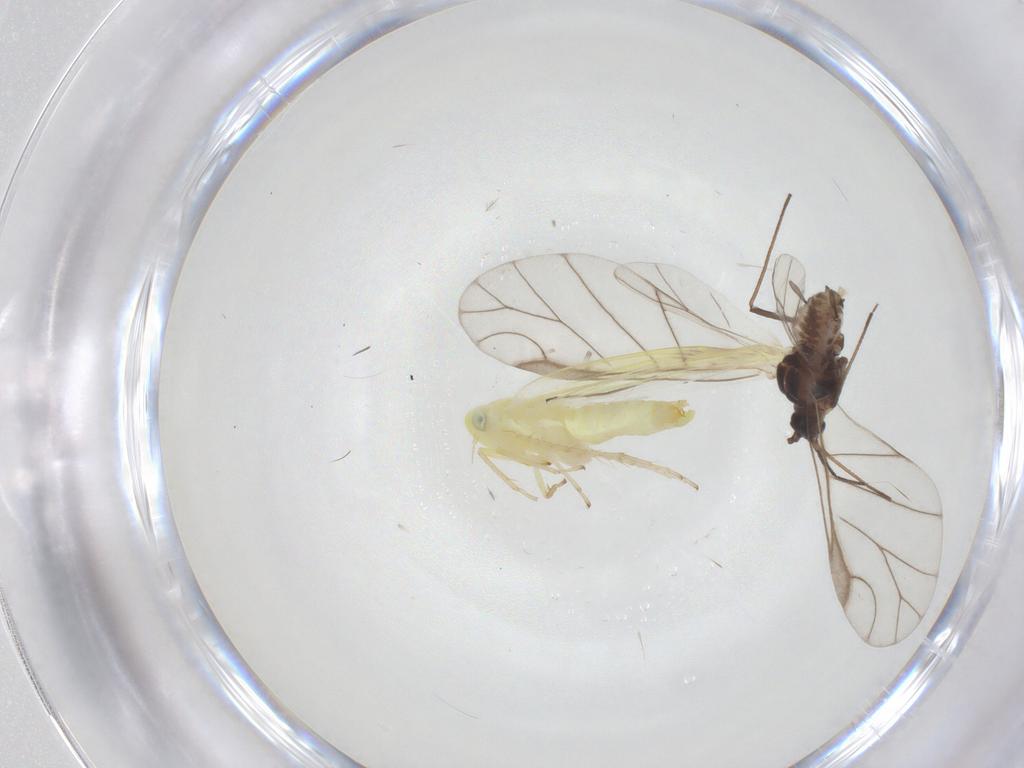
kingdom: Animalia
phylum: Arthropoda
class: Insecta
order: Hemiptera
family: Aphididae
